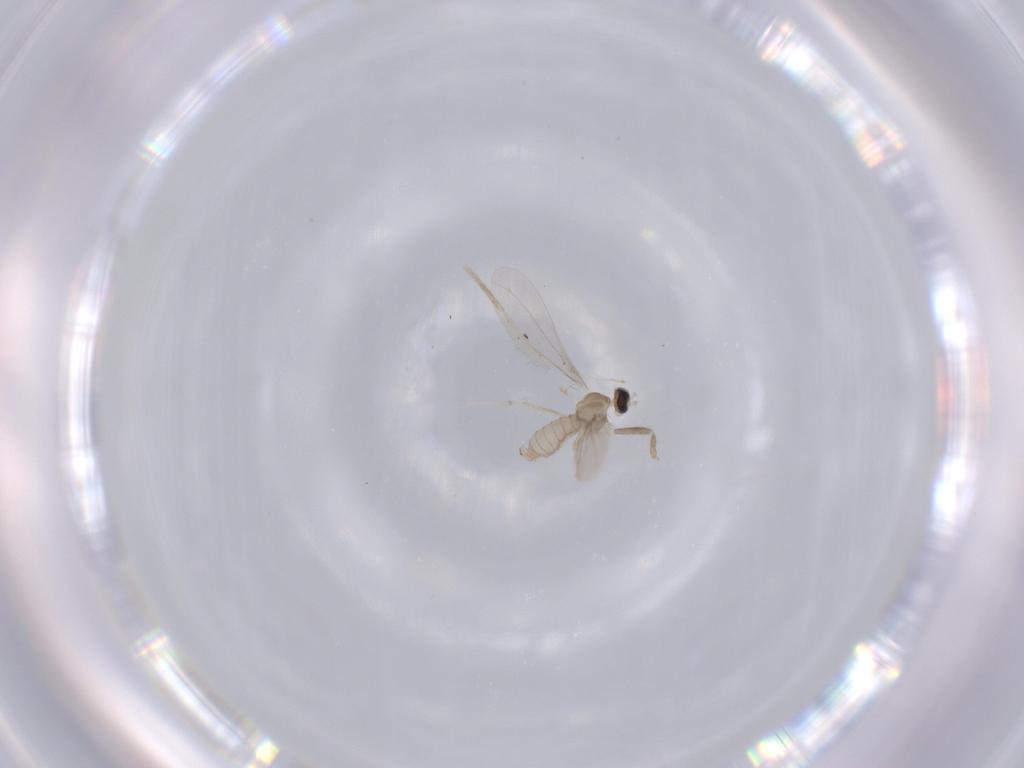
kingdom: Animalia
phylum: Arthropoda
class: Insecta
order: Diptera
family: Cecidomyiidae
